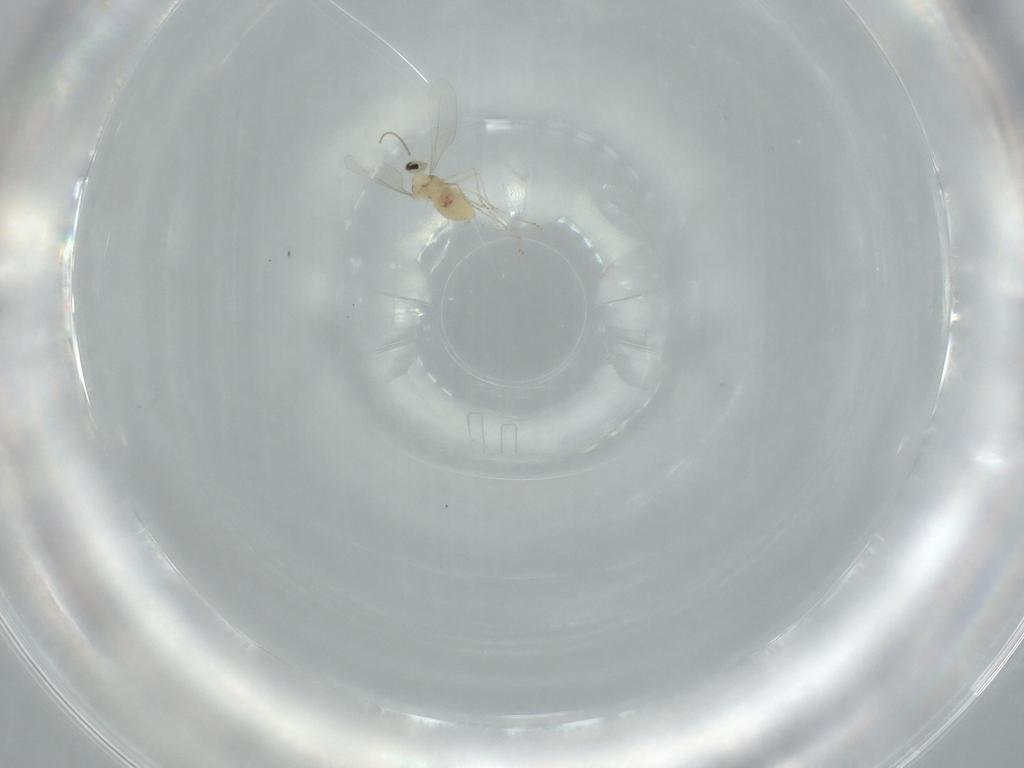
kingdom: Animalia
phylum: Arthropoda
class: Insecta
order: Diptera
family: Cecidomyiidae
